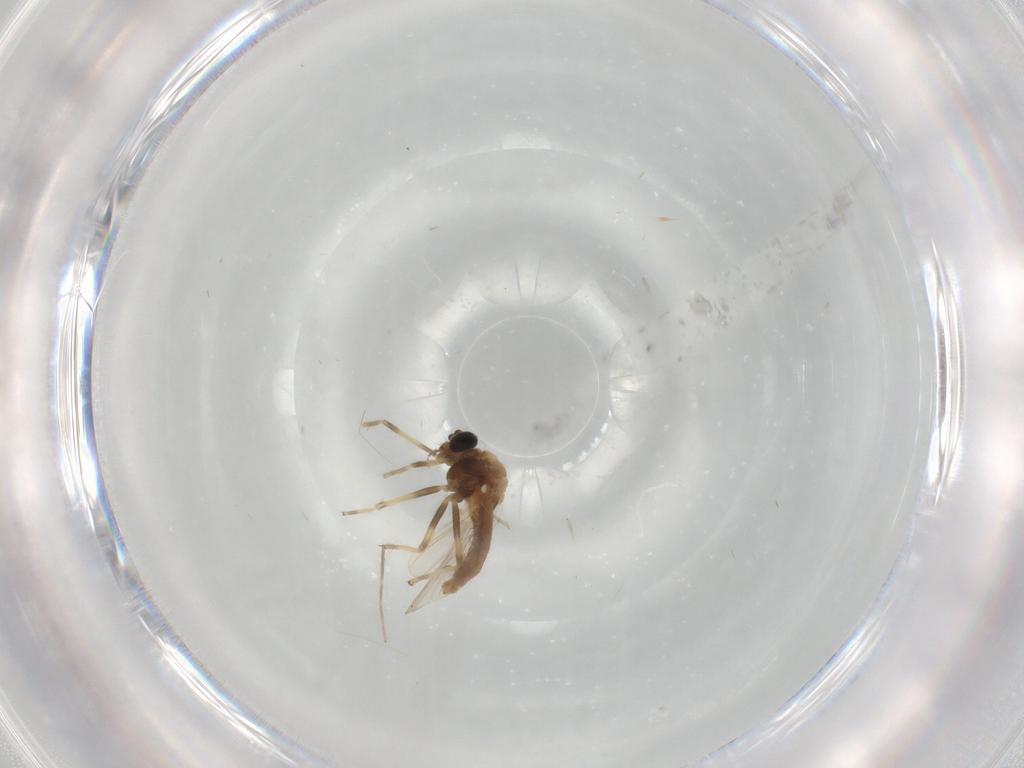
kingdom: Animalia
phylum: Arthropoda
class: Insecta
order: Diptera
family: Chironomidae
